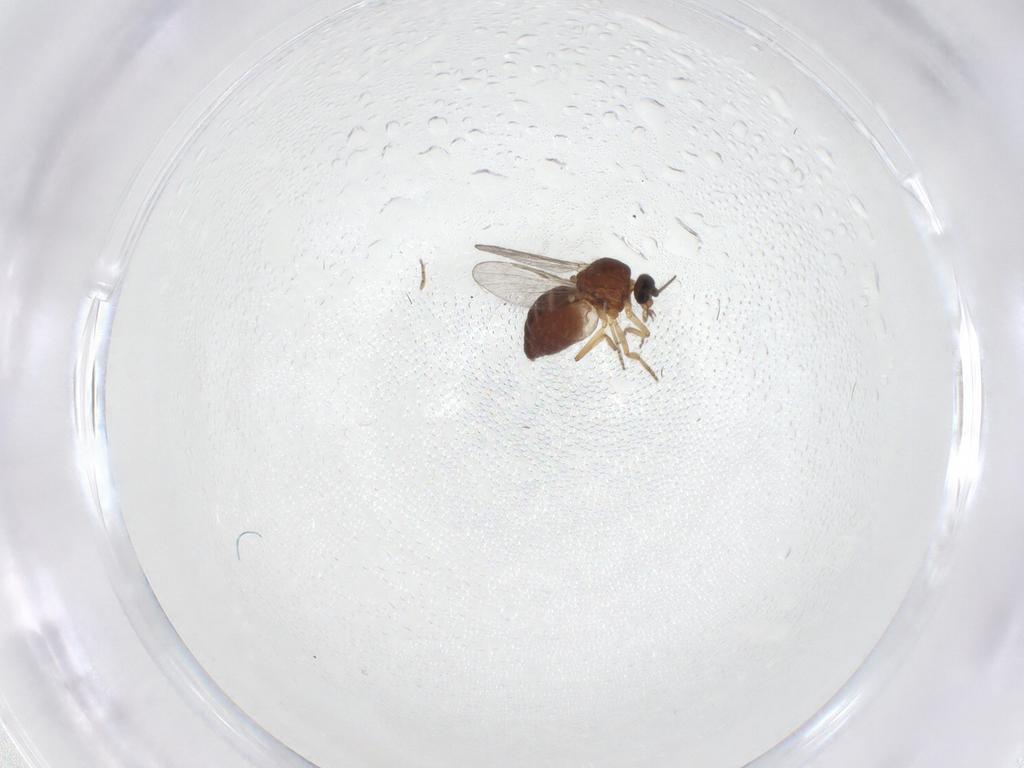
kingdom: Animalia
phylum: Arthropoda
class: Insecta
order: Diptera
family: Ceratopogonidae
